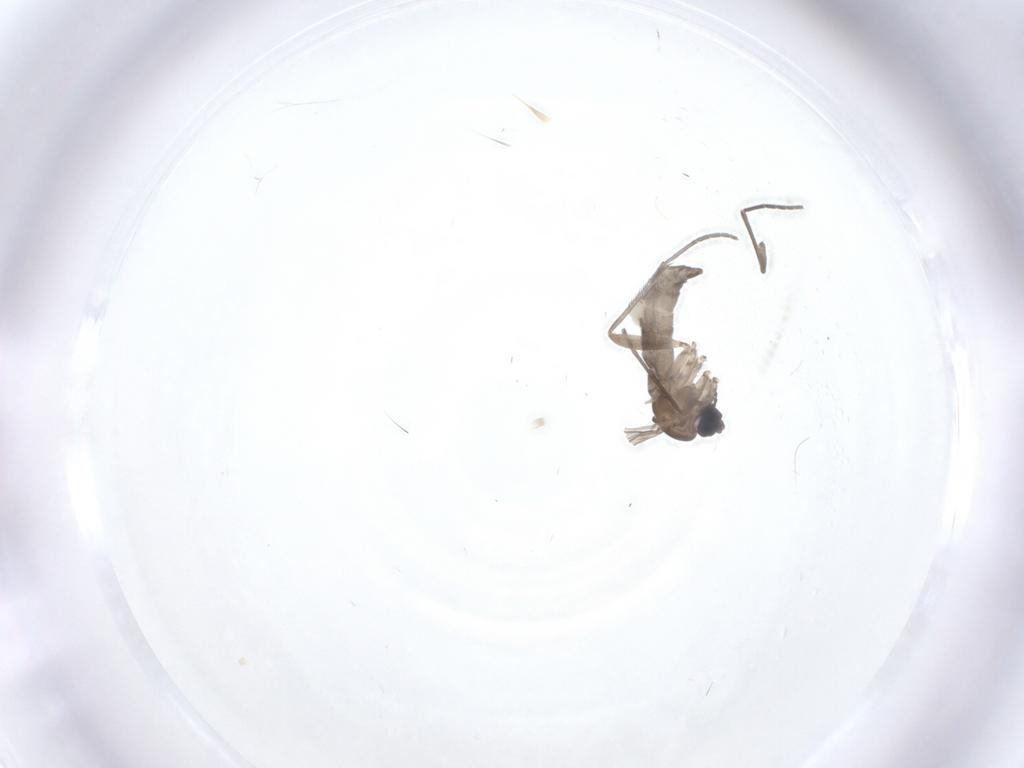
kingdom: Animalia
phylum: Arthropoda
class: Insecta
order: Diptera
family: Sciaridae
